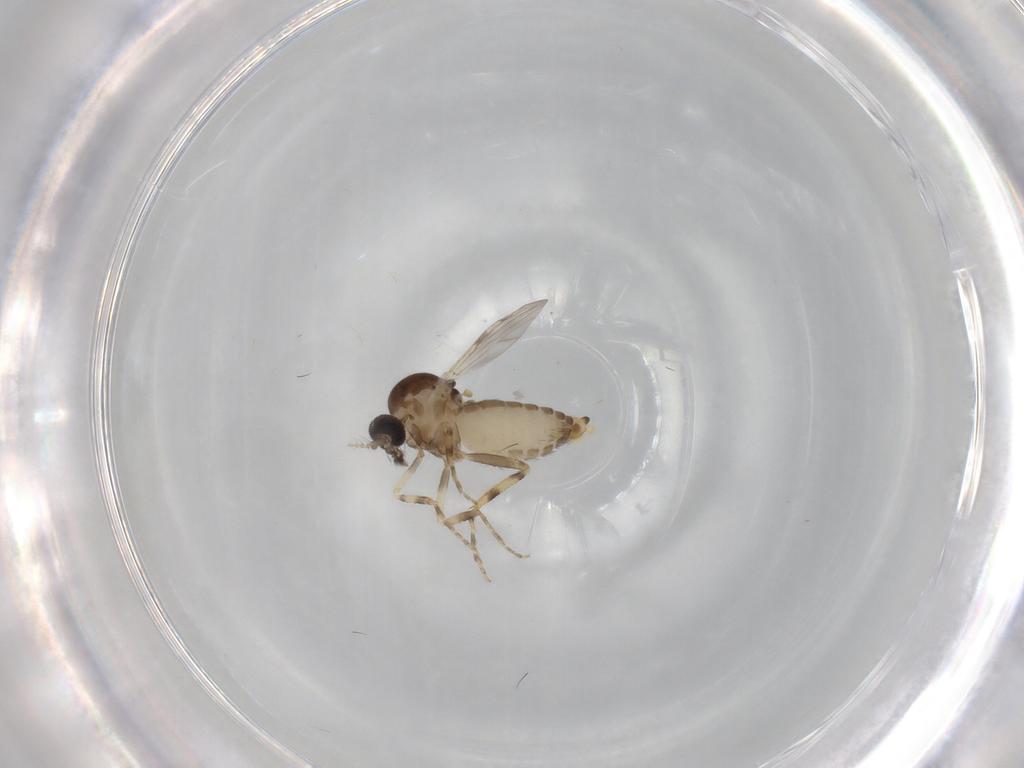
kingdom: Animalia
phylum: Arthropoda
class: Insecta
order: Diptera
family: Ceratopogonidae
